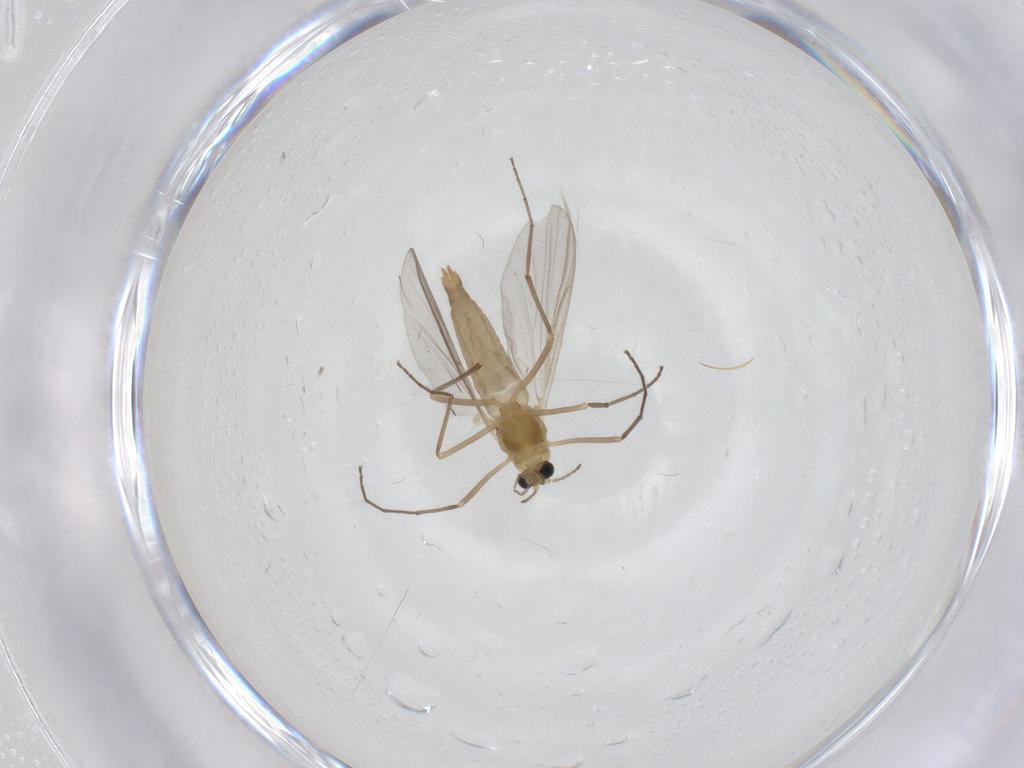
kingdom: Animalia
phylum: Arthropoda
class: Insecta
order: Diptera
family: Chironomidae
